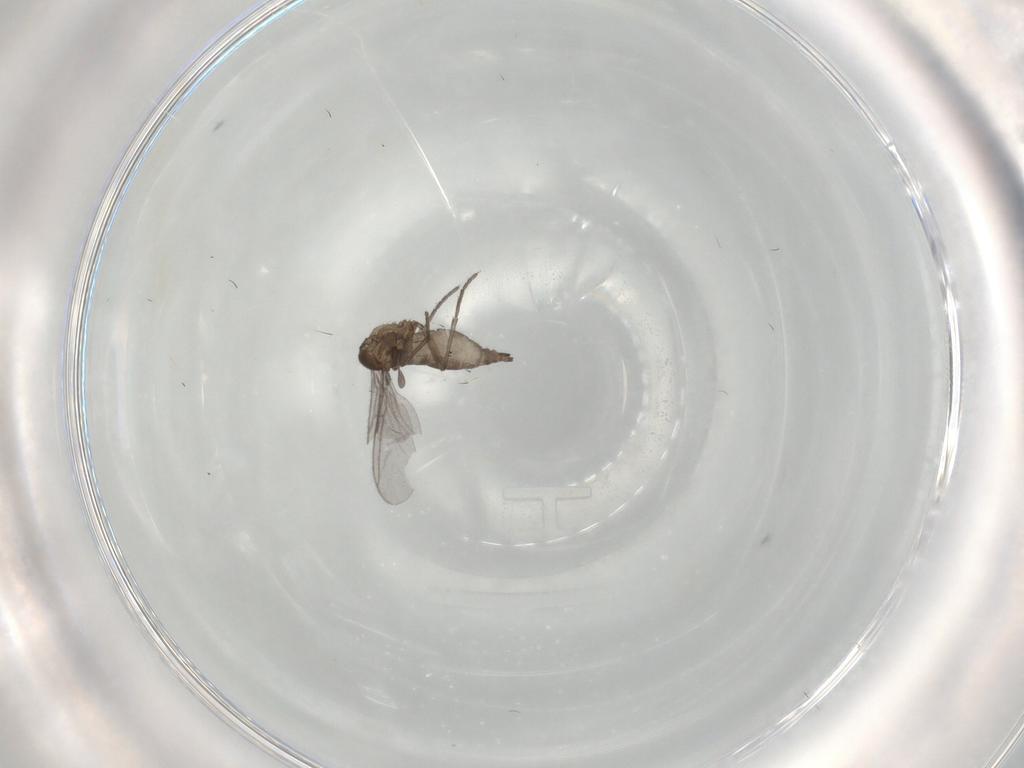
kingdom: Animalia
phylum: Arthropoda
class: Insecta
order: Diptera
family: Sciaridae
